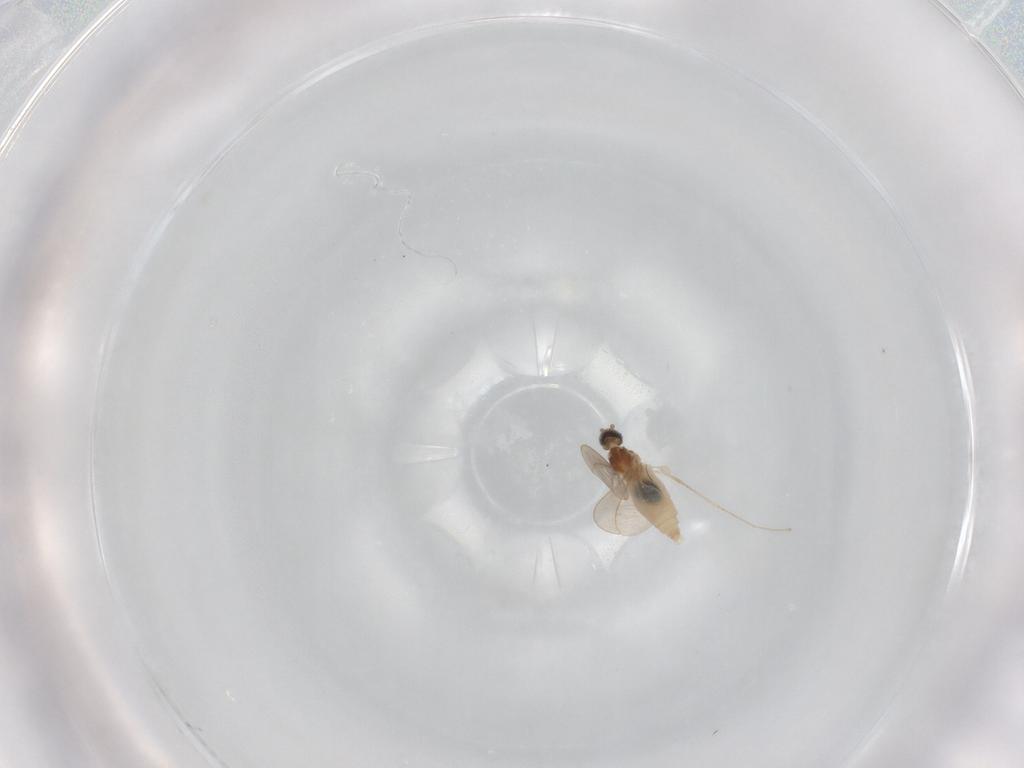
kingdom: Animalia
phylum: Arthropoda
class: Insecta
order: Diptera
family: Cecidomyiidae
